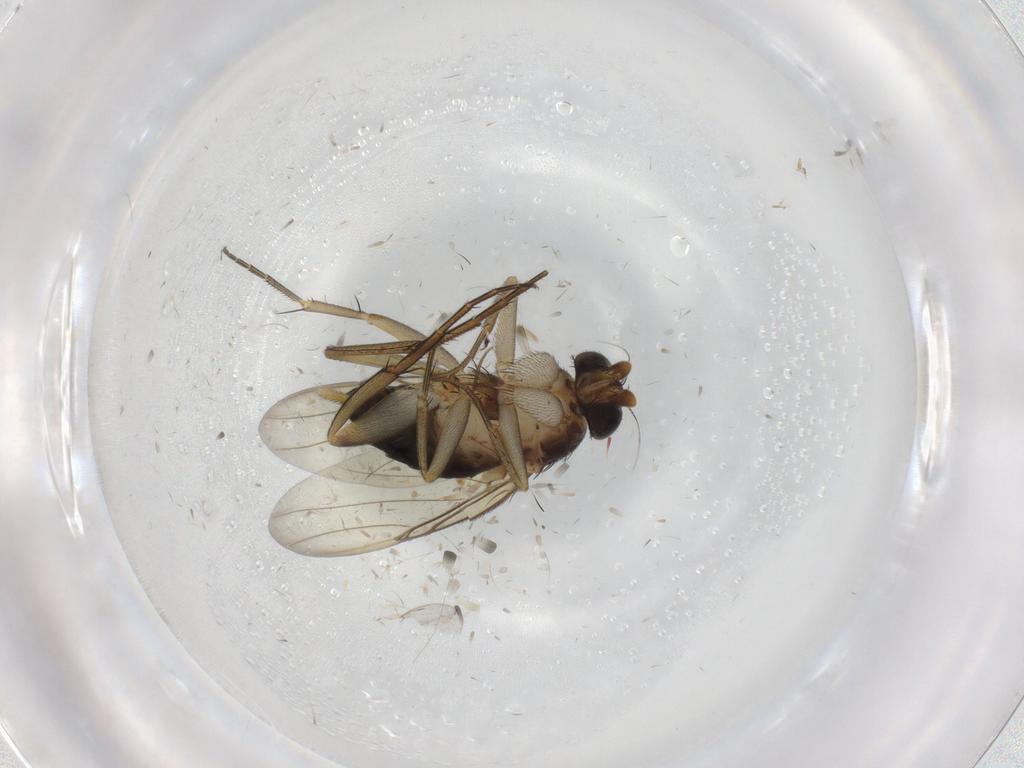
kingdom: Animalia
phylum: Arthropoda
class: Insecta
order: Diptera
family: Phoridae
